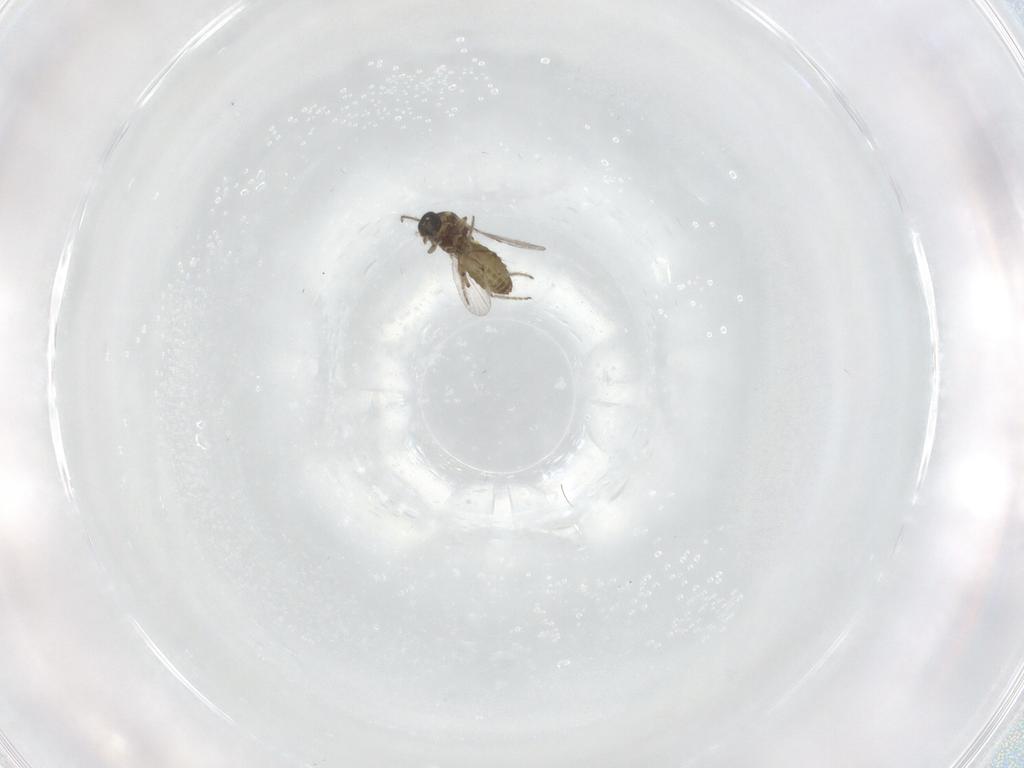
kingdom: Animalia
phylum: Arthropoda
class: Insecta
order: Diptera
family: Ceratopogonidae
